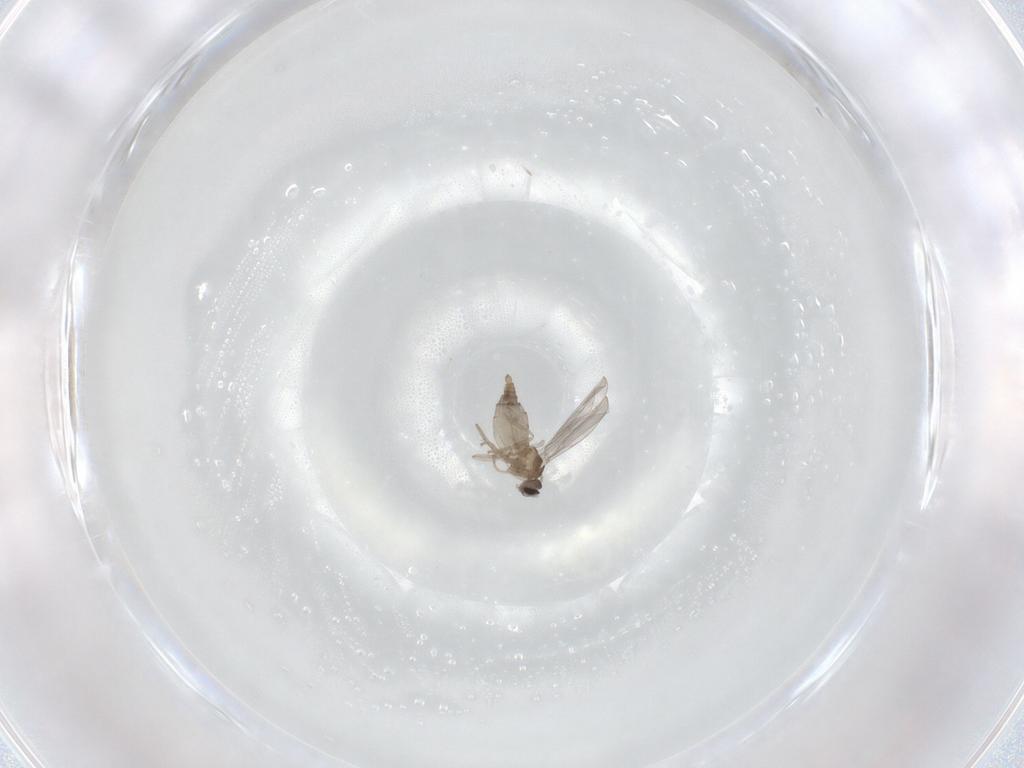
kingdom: Animalia
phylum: Arthropoda
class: Insecta
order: Diptera
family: Cecidomyiidae
